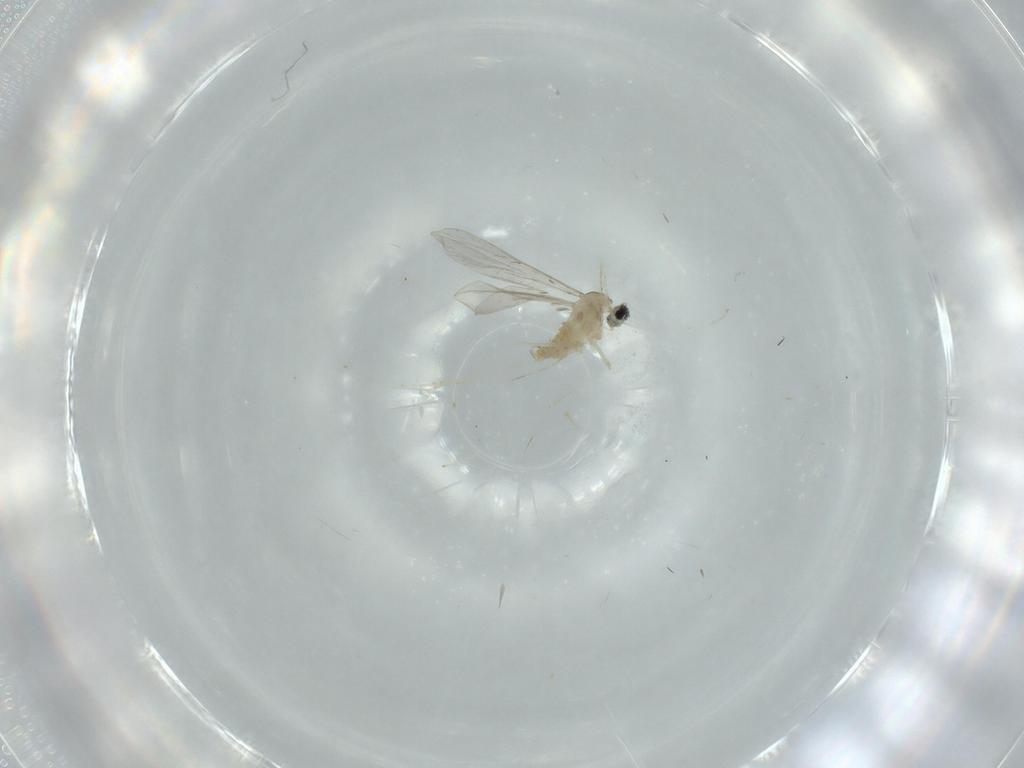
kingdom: Animalia
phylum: Arthropoda
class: Insecta
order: Diptera
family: Cecidomyiidae
